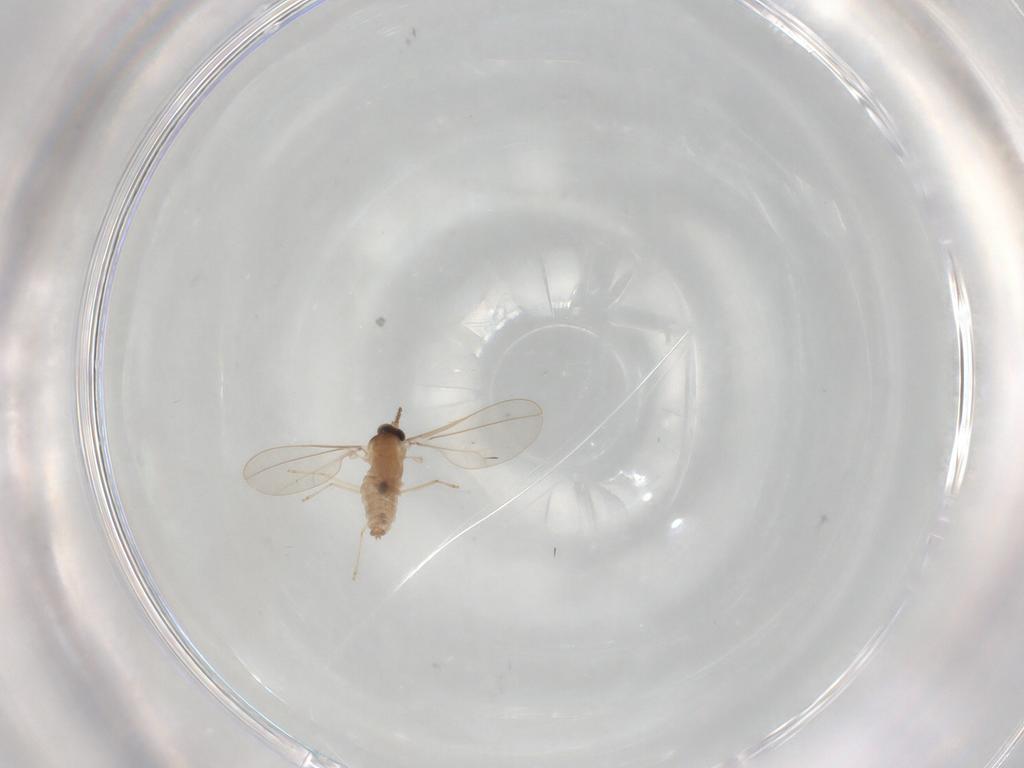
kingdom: Animalia
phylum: Arthropoda
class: Insecta
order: Diptera
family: Cecidomyiidae
